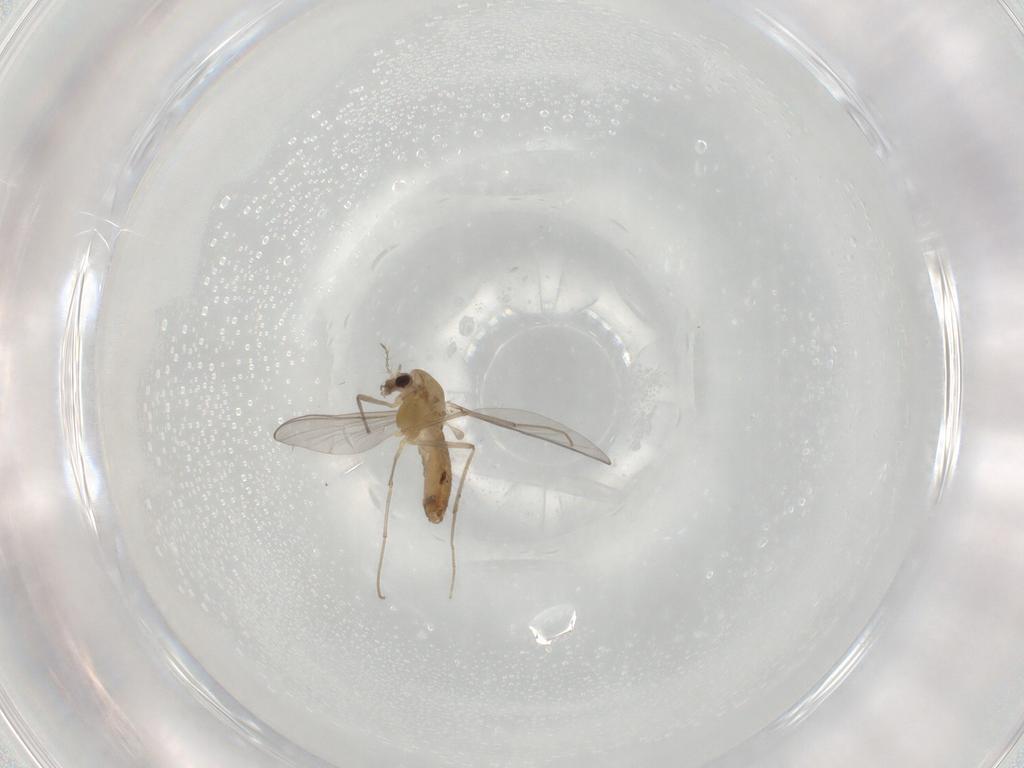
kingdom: Animalia
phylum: Arthropoda
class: Insecta
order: Diptera
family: Chironomidae
